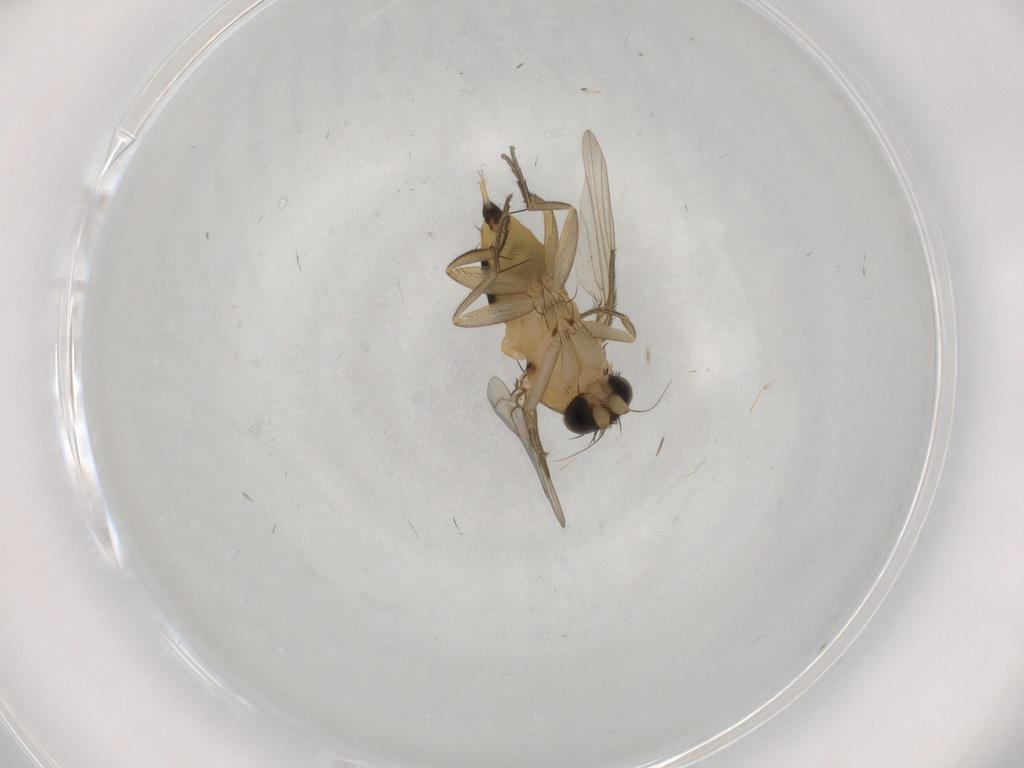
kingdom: Animalia
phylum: Arthropoda
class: Insecta
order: Diptera
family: Phoridae
